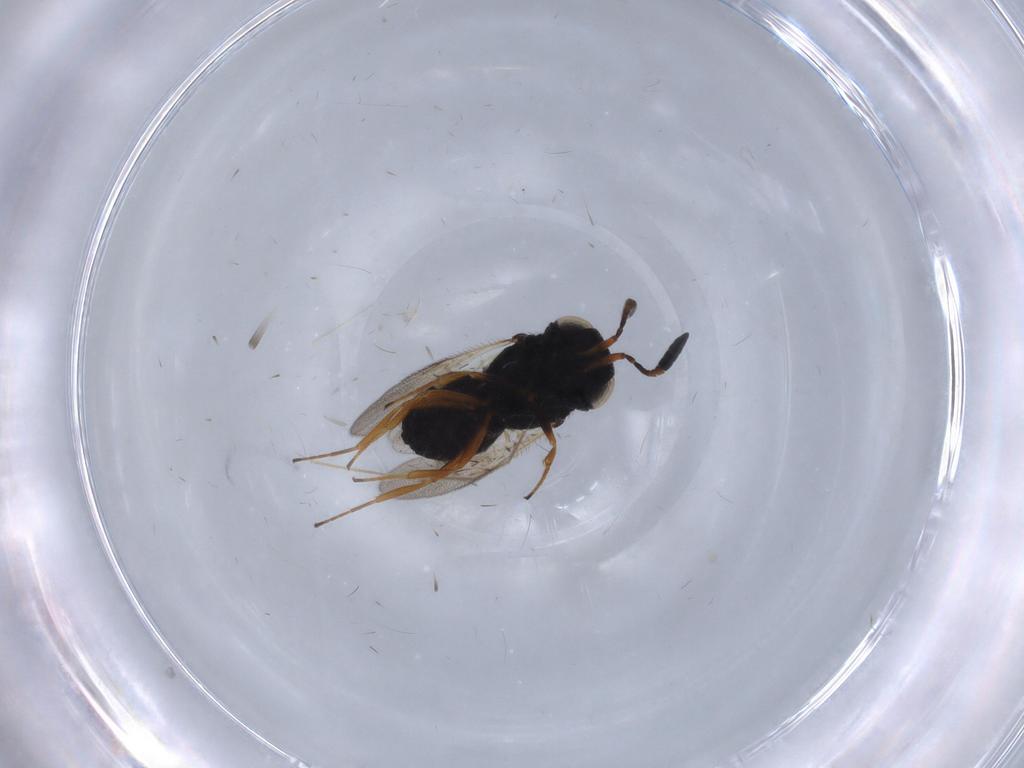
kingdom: Animalia
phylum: Arthropoda
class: Insecta
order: Hymenoptera
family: Scelionidae
